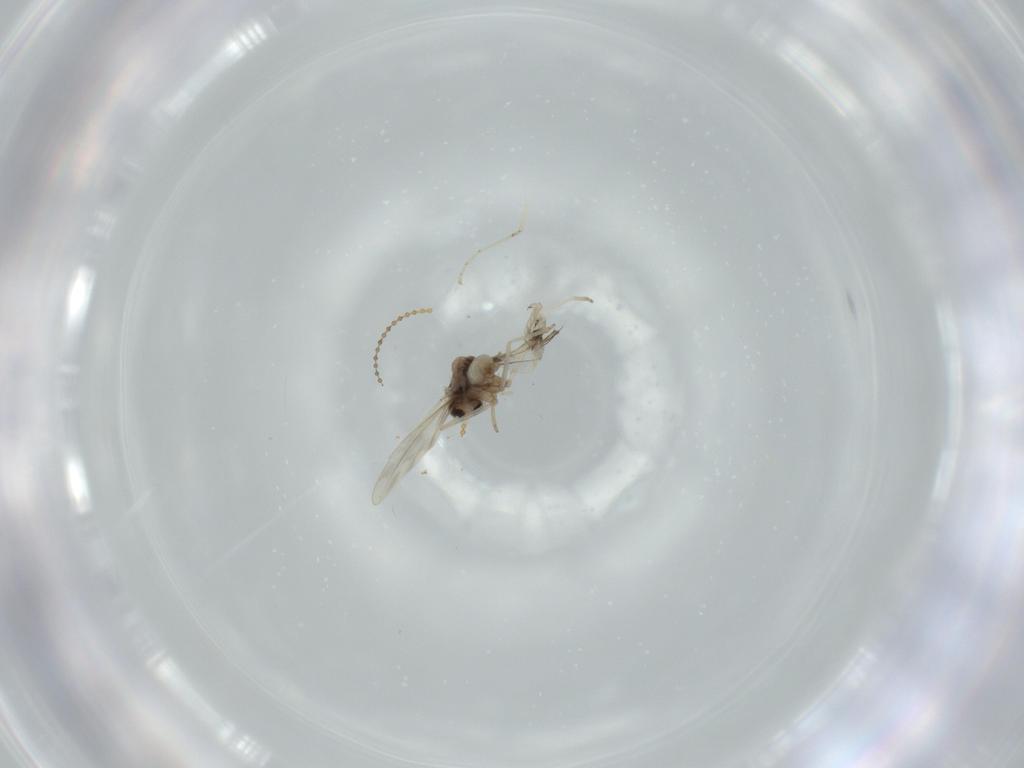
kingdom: Animalia
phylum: Arthropoda
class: Insecta
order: Diptera
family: Cecidomyiidae
